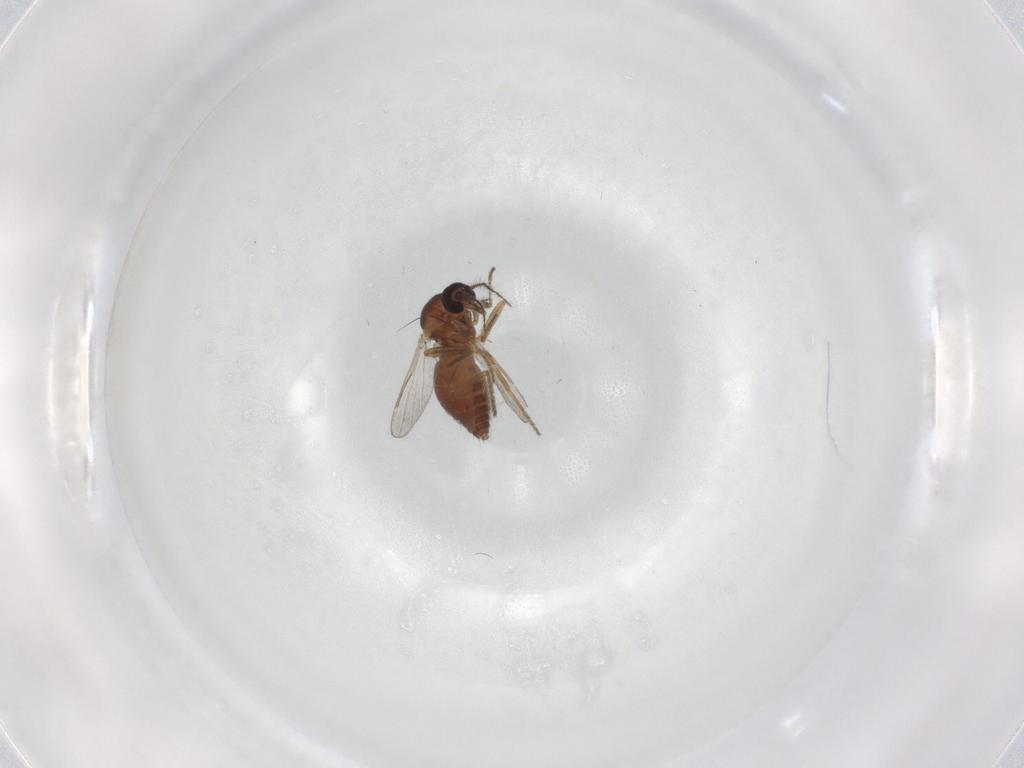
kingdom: Animalia
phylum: Arthropoda
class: Insecta
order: Diptera
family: Ceratopogonidae
